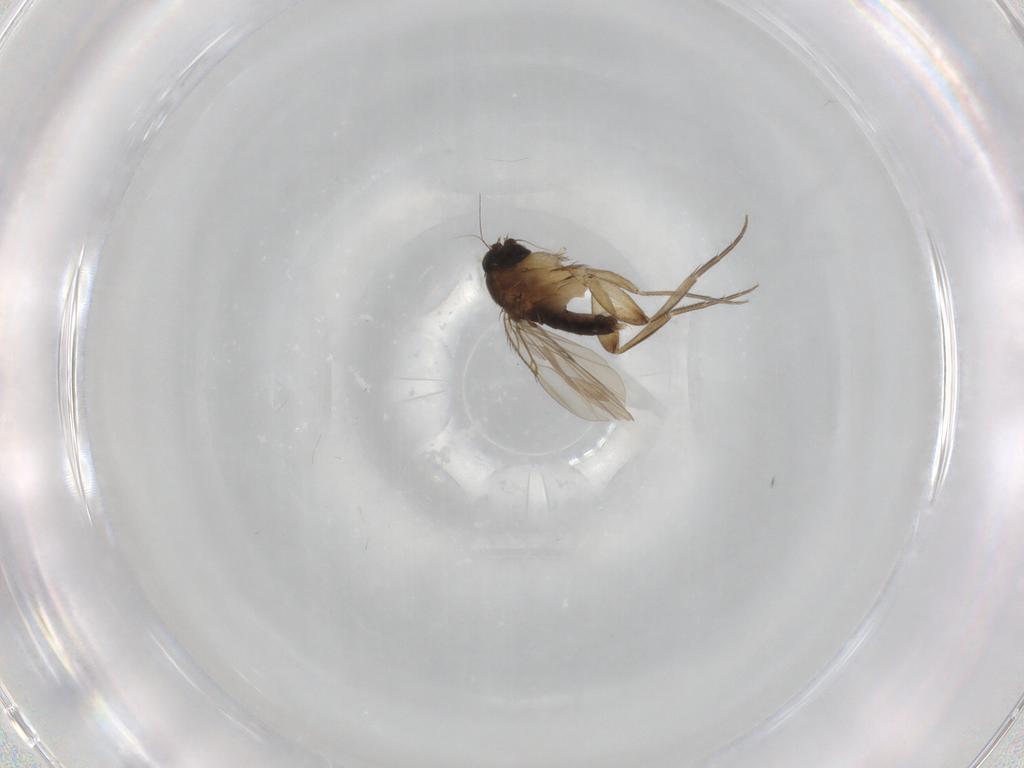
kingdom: Animalia
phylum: Arthropoda
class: Insecta
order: Diptera
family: Phoridae
